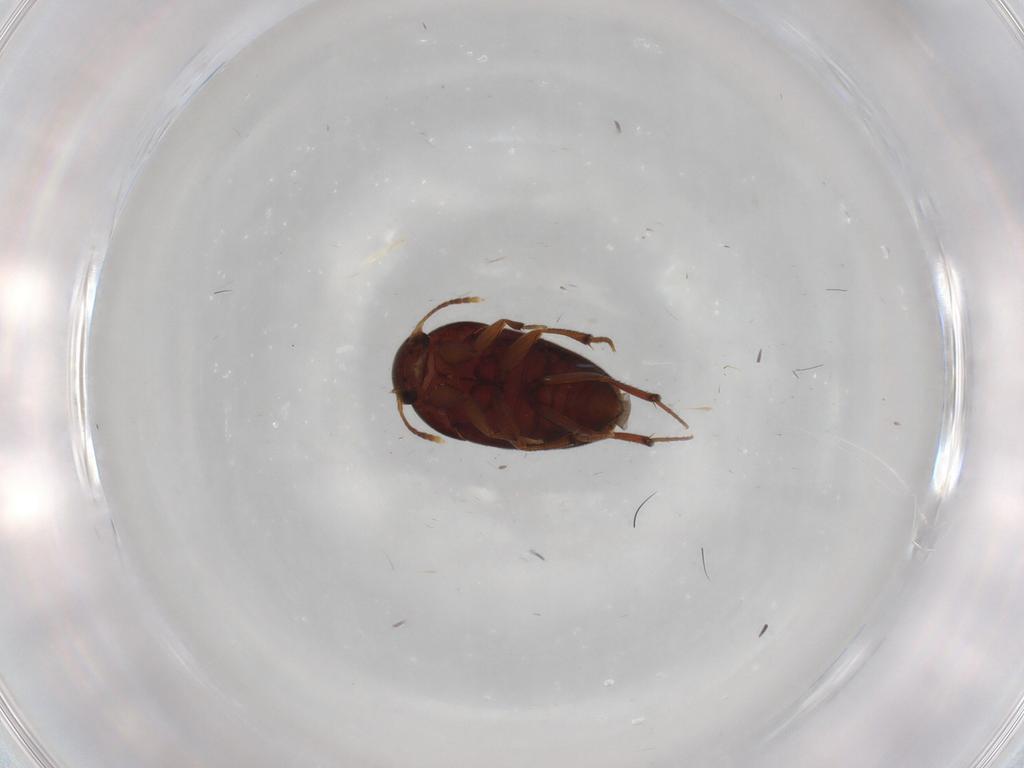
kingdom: Animalia
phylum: Arthropoda
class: Insecta
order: Coleoptera
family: Leiodidae
